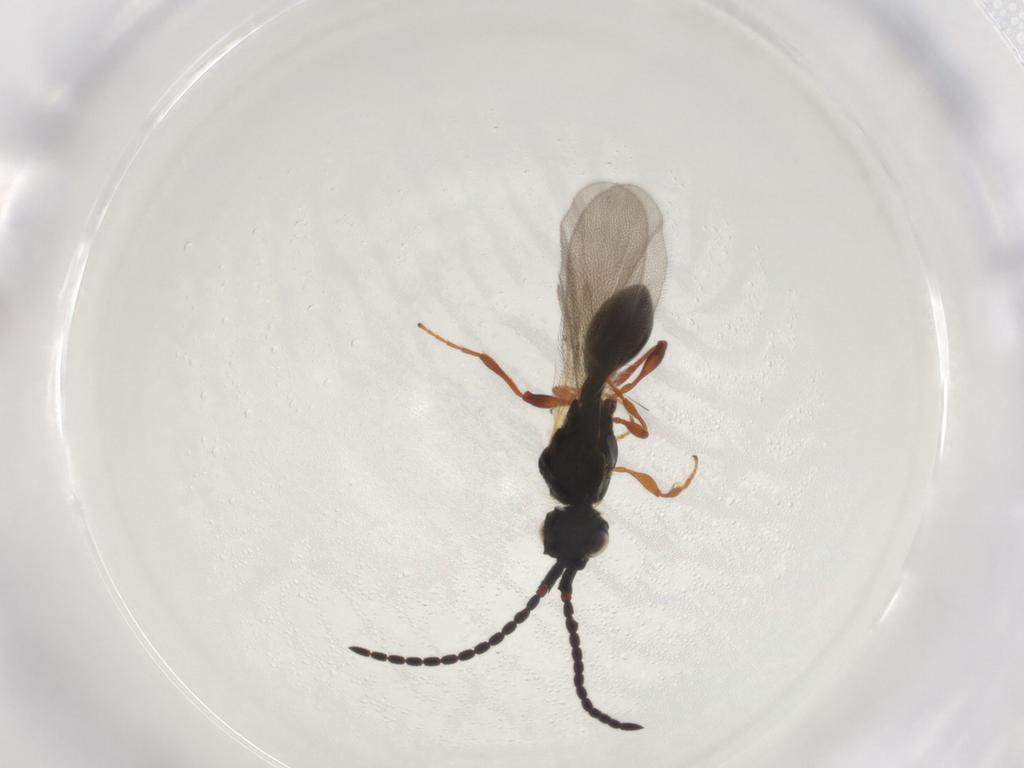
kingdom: Animalia
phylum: Arthropoda
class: Insecta
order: Hymenoptera
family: Diapriidae
